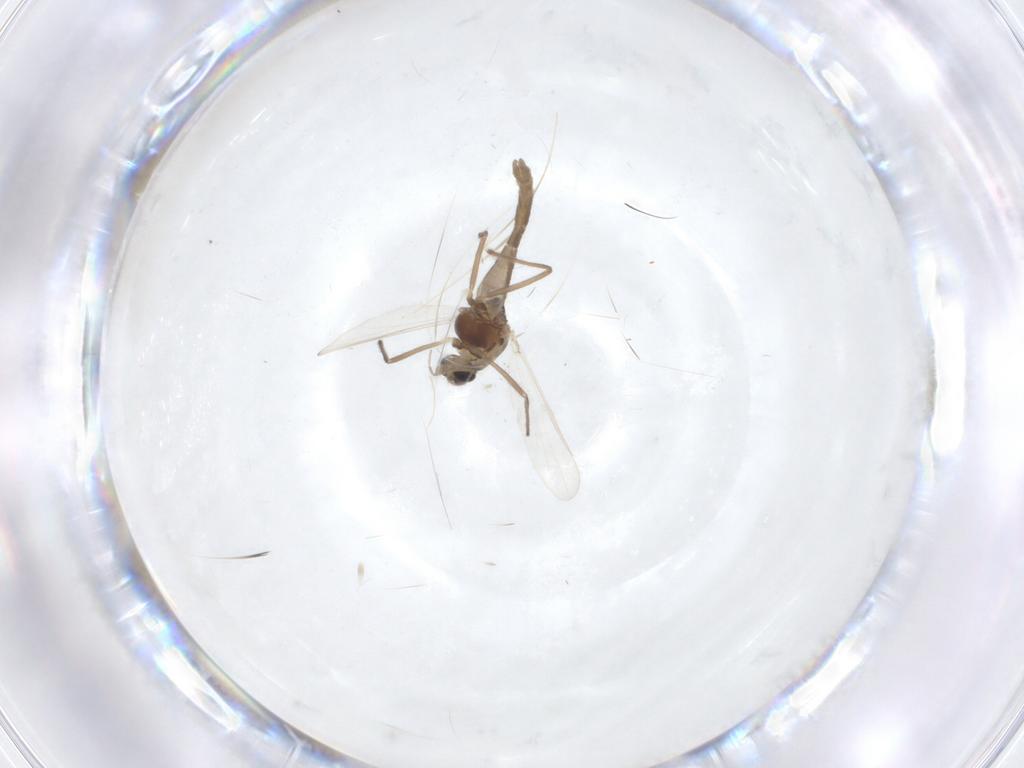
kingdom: Animalia
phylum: Arthropoda
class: Insecta
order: Diptera
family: Chironomidae
